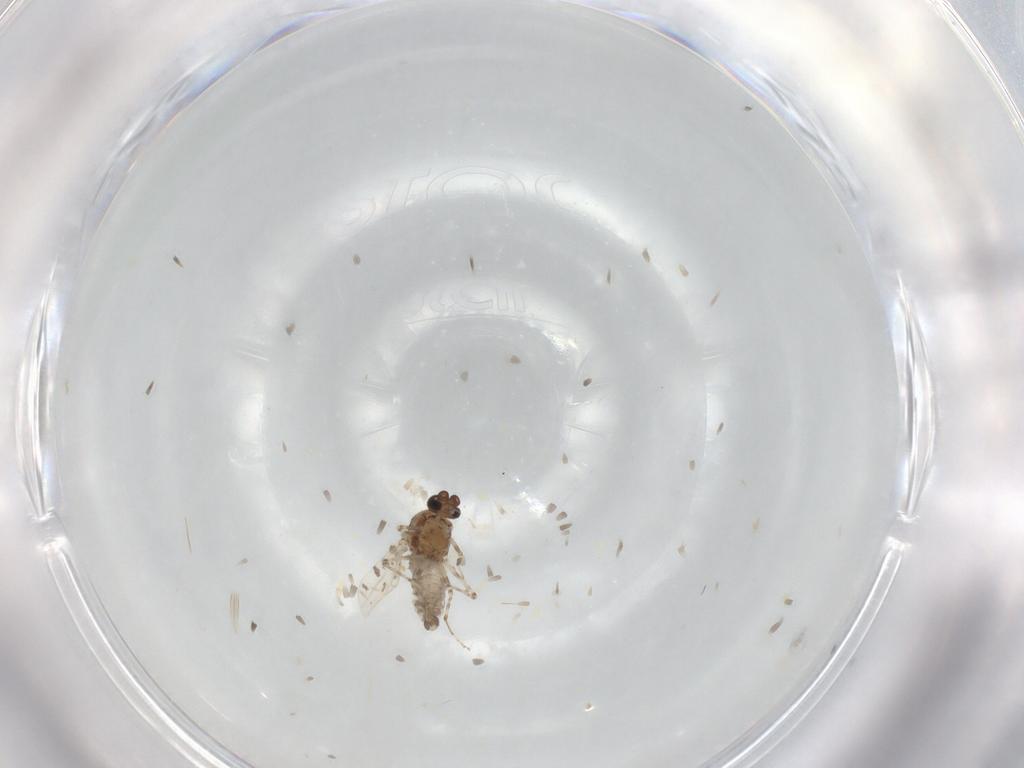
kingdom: Animalia
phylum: Arthropoda
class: Insecta
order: Diptera
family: Ceratopogonidae
